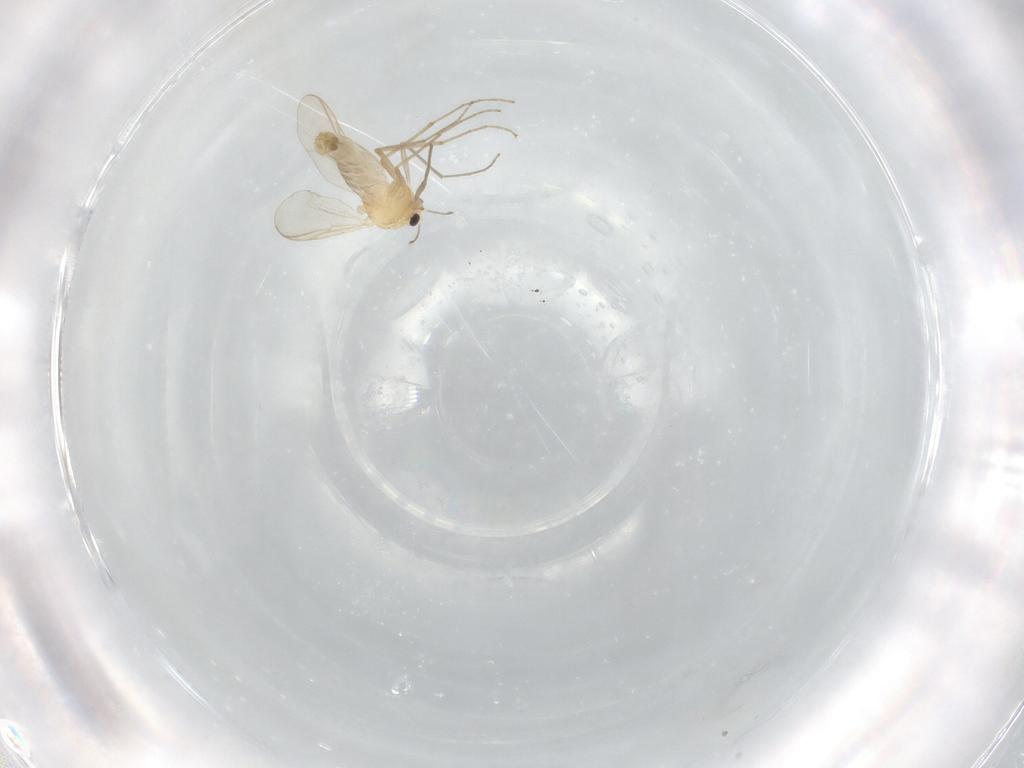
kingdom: Animalia
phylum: Arthropoda
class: Insecta
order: Diptera
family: Chironomidae
